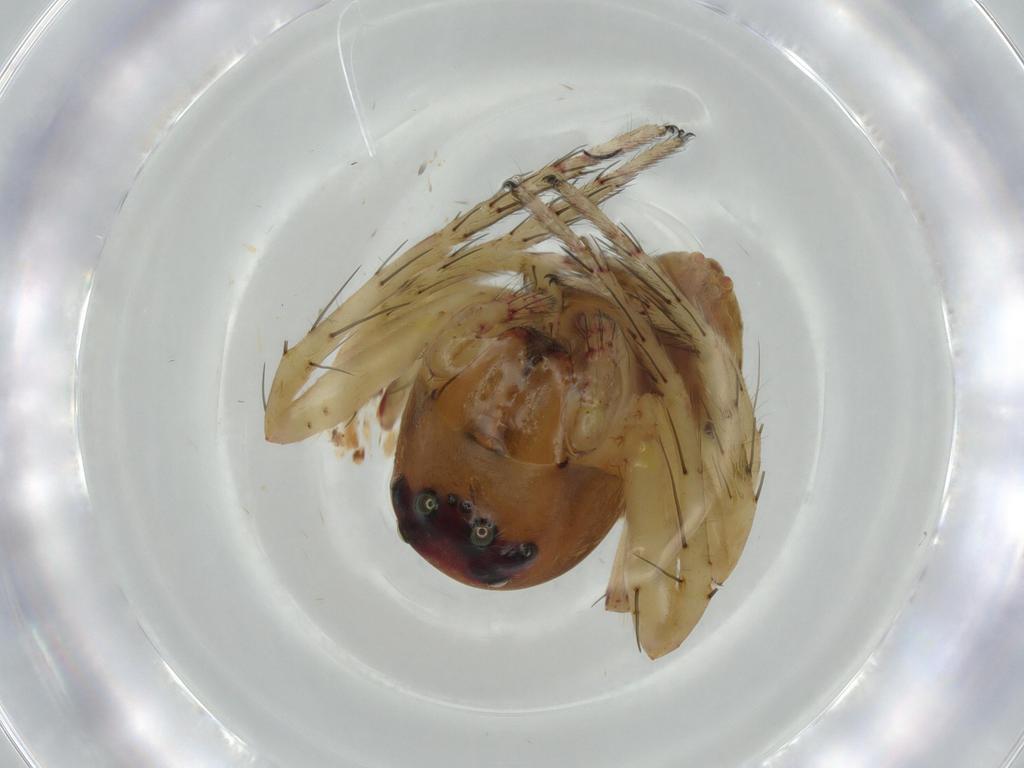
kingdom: Animalia
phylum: Arthropoda
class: Arachnida
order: Araneae
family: Oxyopidae
